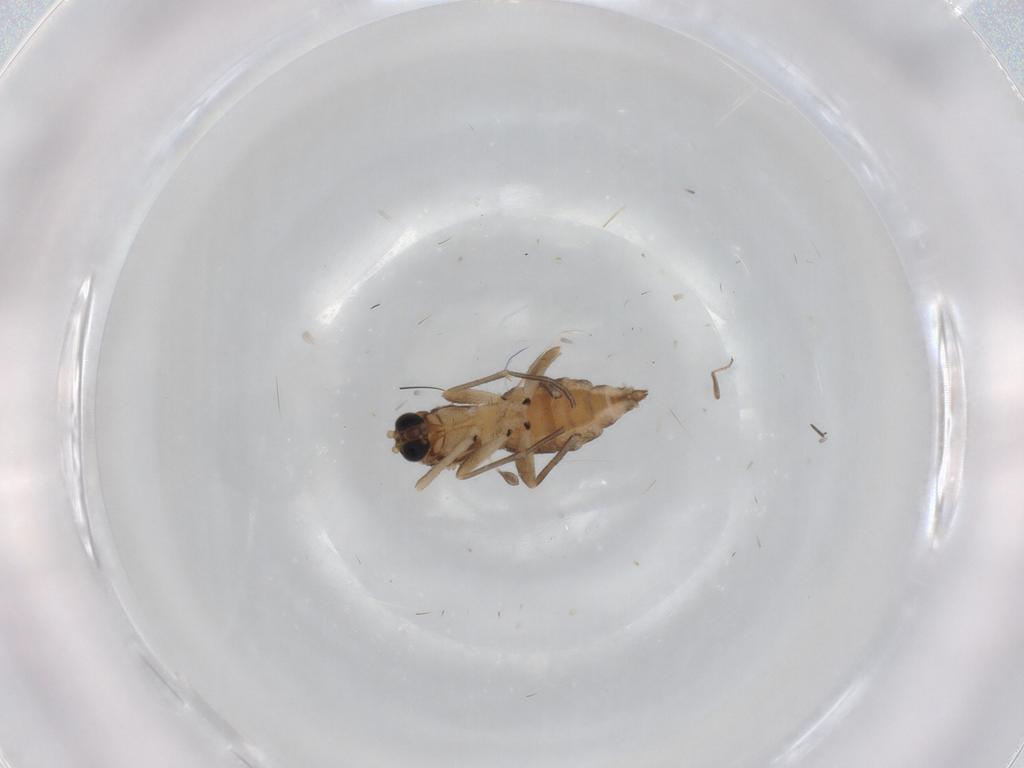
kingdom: Animalia
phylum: Arthropoda
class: Insecta
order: Diptera
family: Sciaridae
